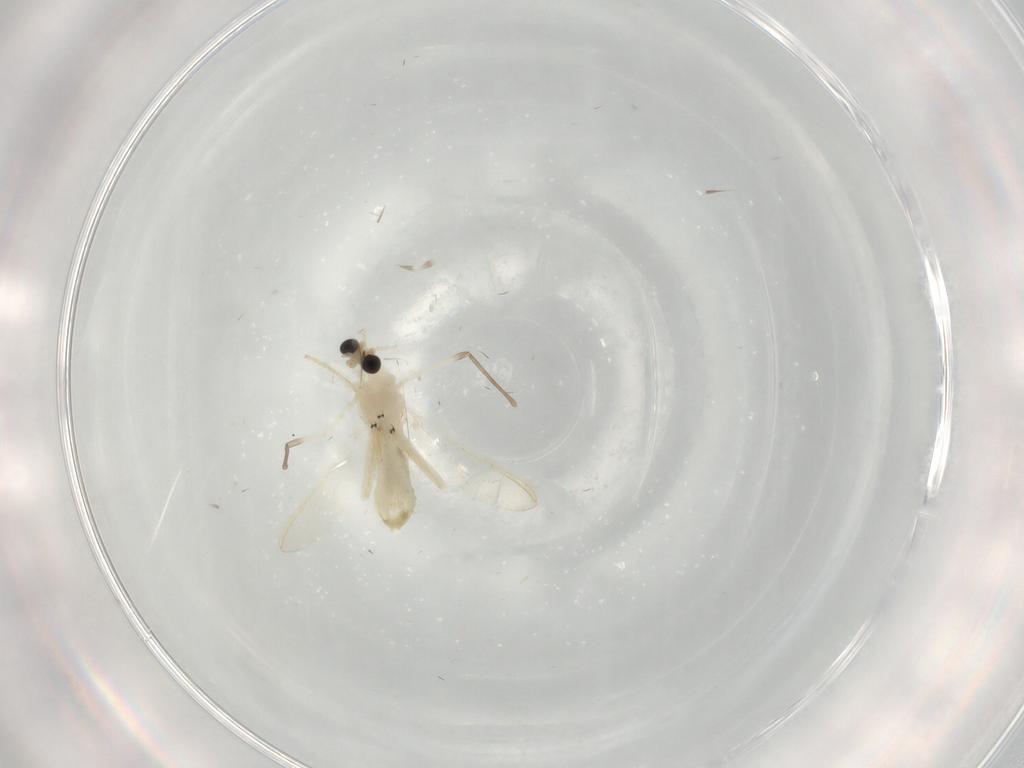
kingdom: Animalia
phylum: Arthropoda
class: Insecta
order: Diptera
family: Chironomidae
